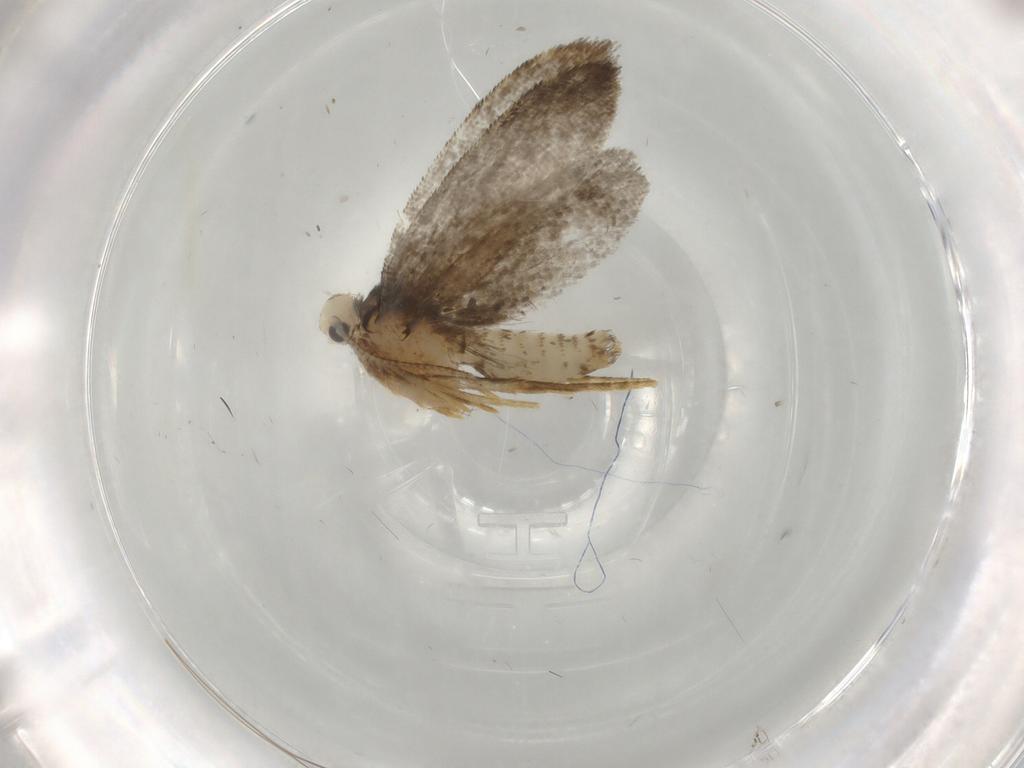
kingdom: Animalia
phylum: Arthropoda
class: Insecta
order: Lepidoptera
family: Psychidae
